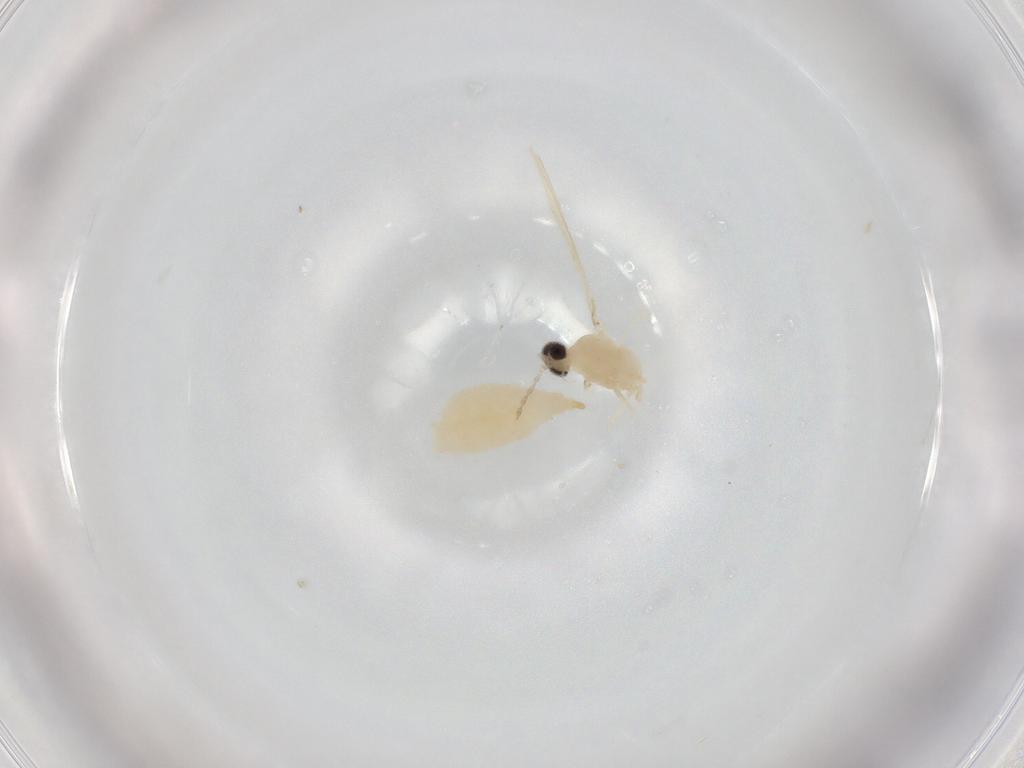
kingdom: Animalia
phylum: Arthropoda
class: Insecta
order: Diptera
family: Cecidomyiidae
